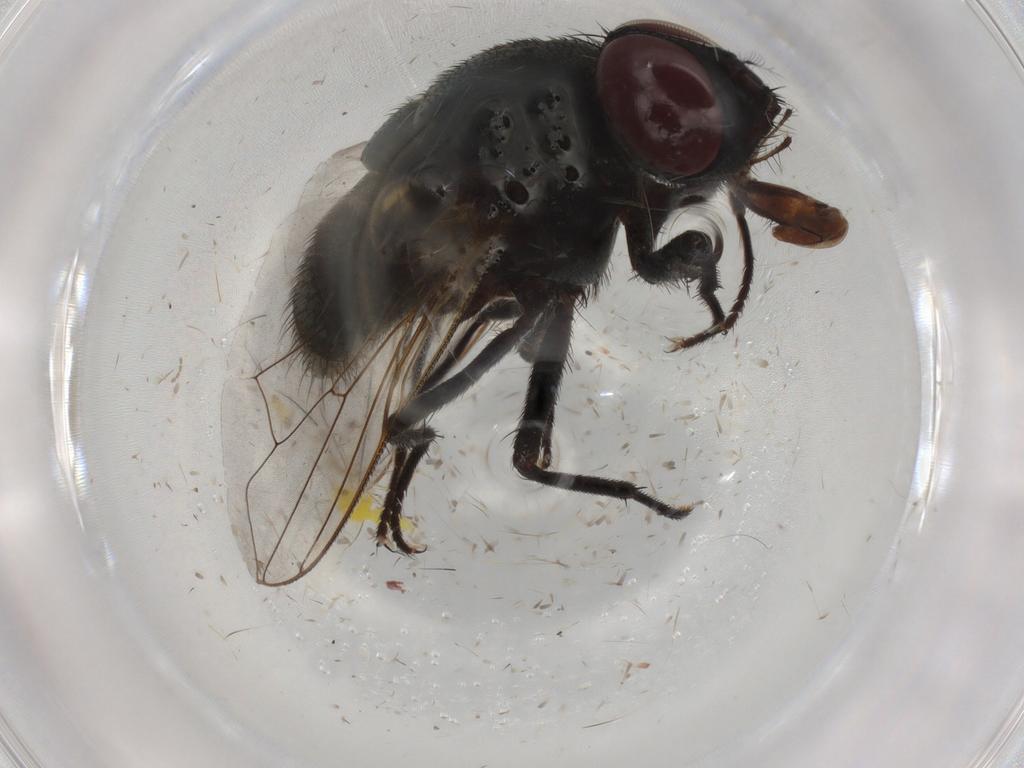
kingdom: Animalia
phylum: Arthropoda
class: Insecta
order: Diptera
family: Muscidae
